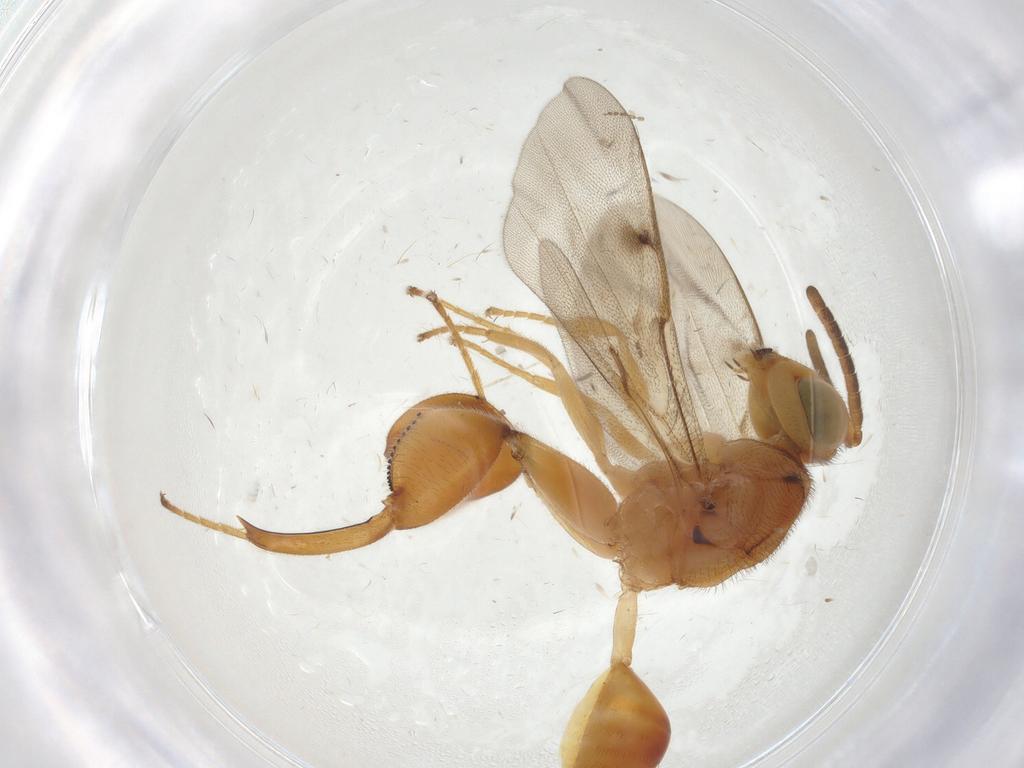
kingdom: Animalia
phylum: Arthropoda
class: Insecta
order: Hymenoptera
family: Chalcididae
